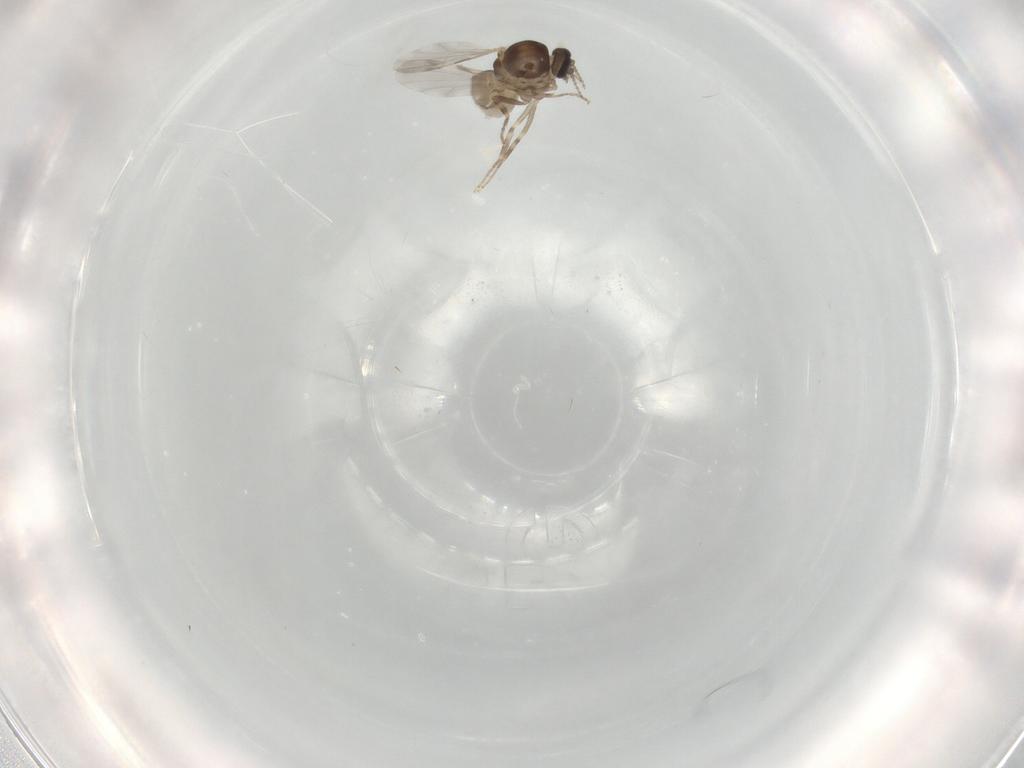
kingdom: Animalia
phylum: Arthropoda
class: Insecta
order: Diptera
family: Ceratopogonidae
